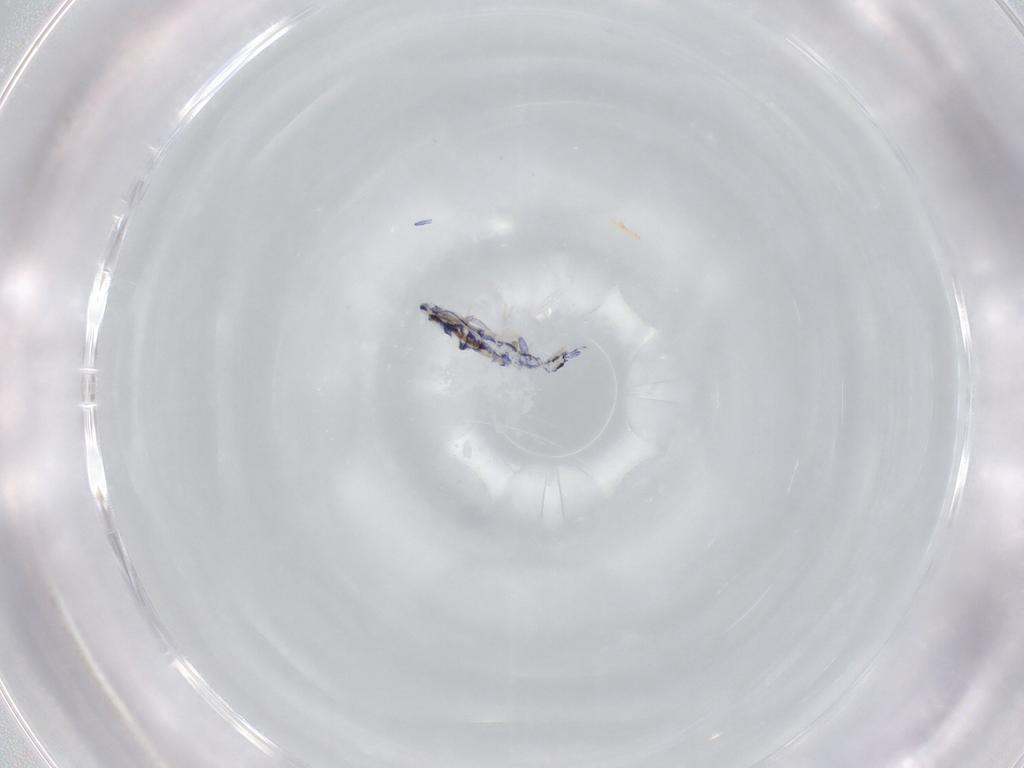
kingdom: Animalia
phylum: Arthropoda
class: Collembola
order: Entomobryomorpha
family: Entomobryidae
